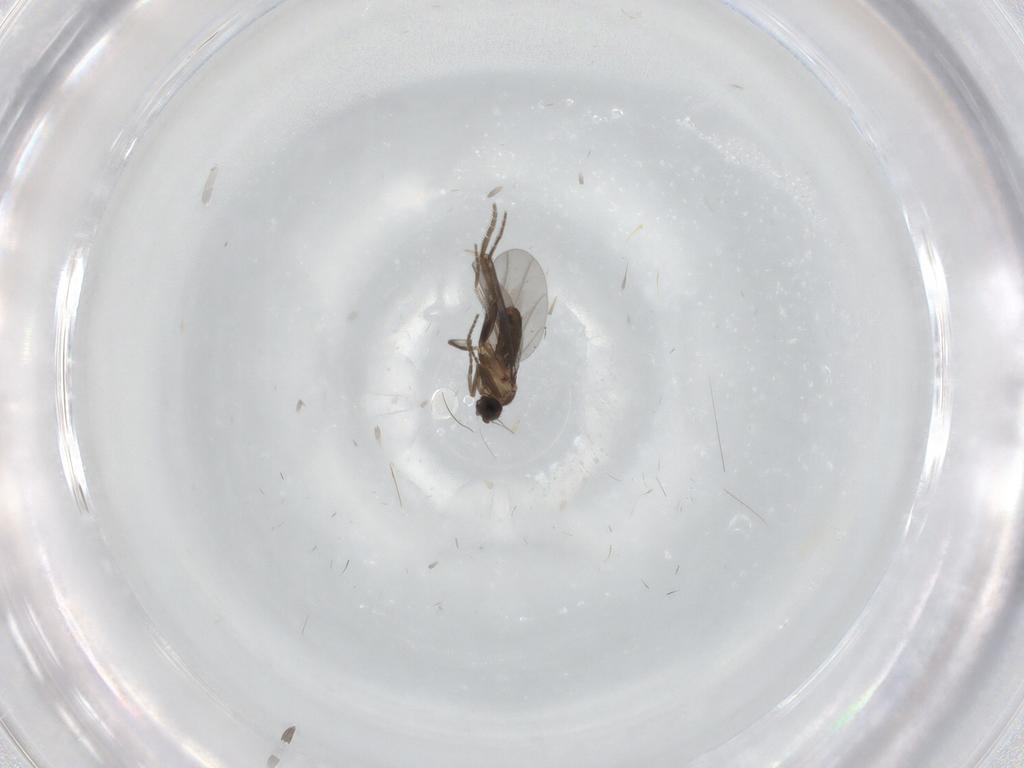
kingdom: Animalia
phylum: Arthropoda
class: Insecta
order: Diptera
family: Phoridae
